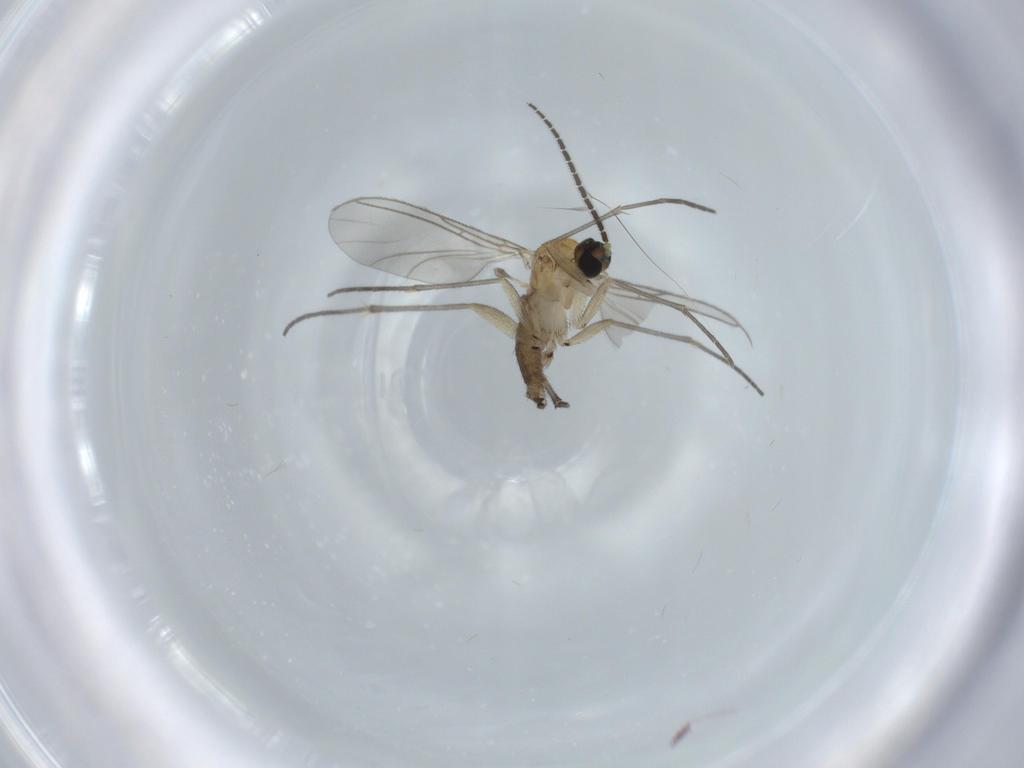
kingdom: Animalia
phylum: Arthropoda
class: Insecta
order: Diptera
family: Sciaridae
